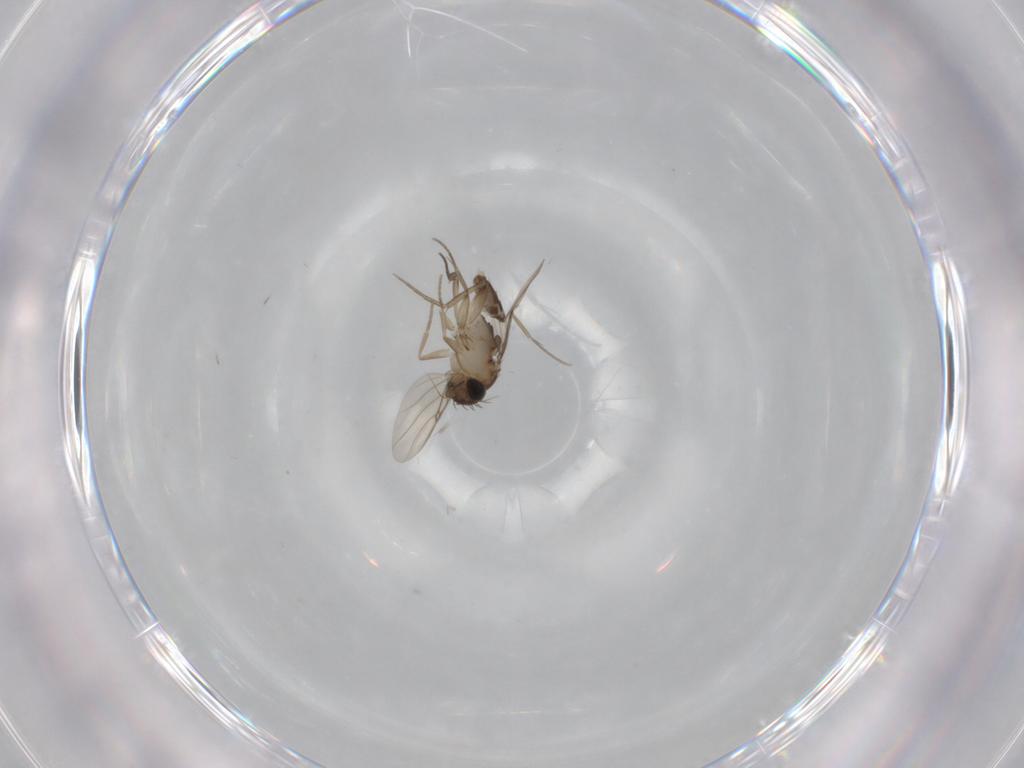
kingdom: Animalia
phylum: Arthropoda
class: Insecta
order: Diptera
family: Phoridae
